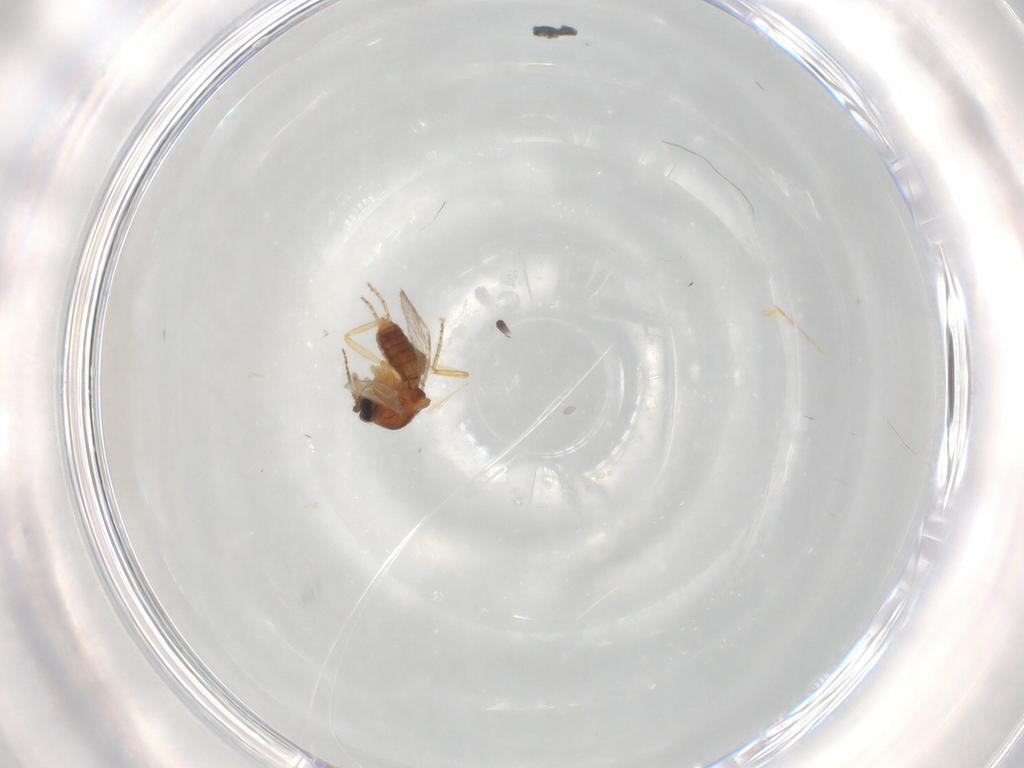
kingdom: Animalia
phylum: Arthropoda
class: Insecta
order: Diptera
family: Ceratopogonidae
